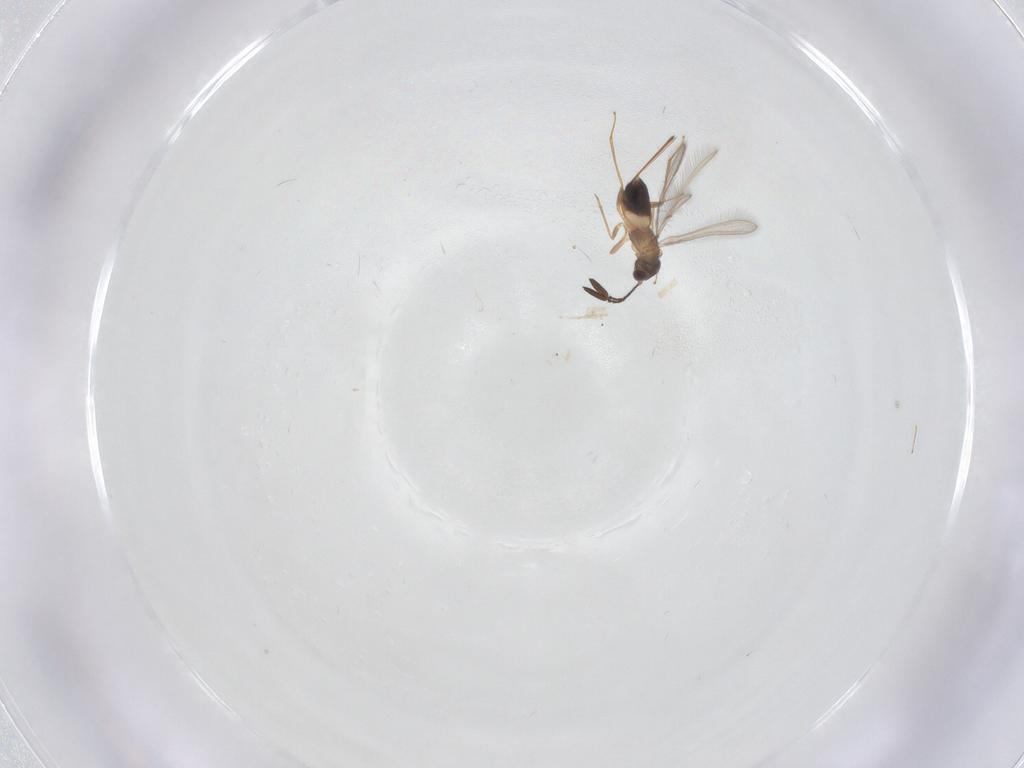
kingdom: Animalia
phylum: Arthropoda
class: Insecta
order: Hymenoptera
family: Mymaridae
